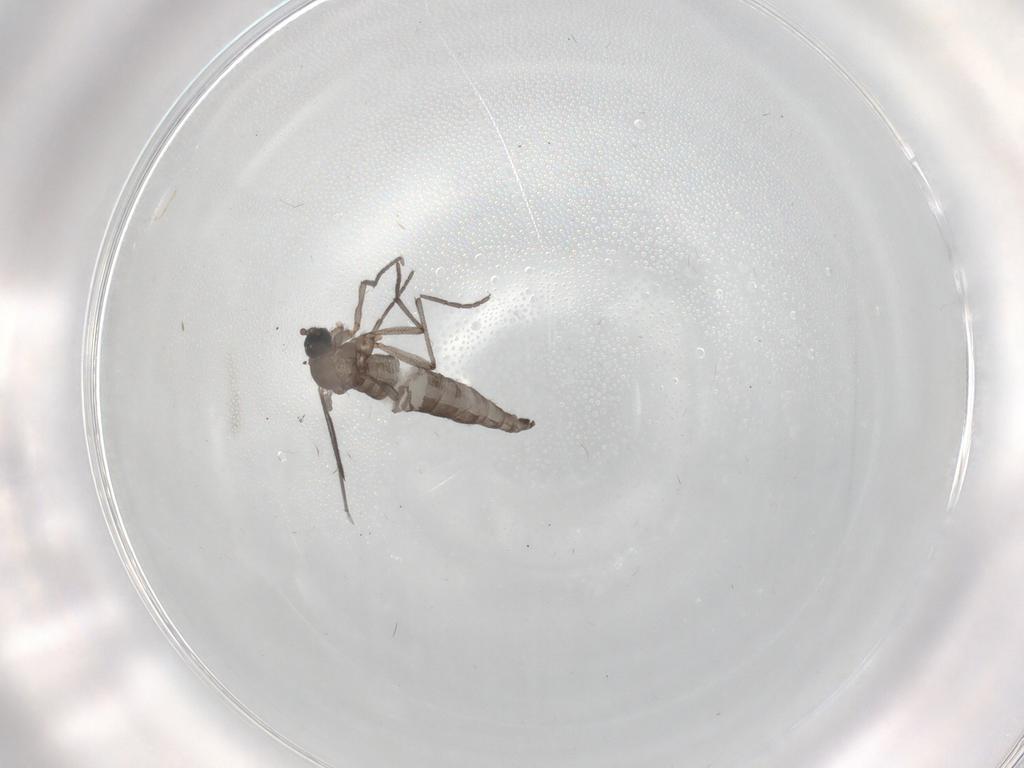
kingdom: Animalia
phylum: Arthropoda
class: Insecta
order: Diptera
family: Sciaridae
